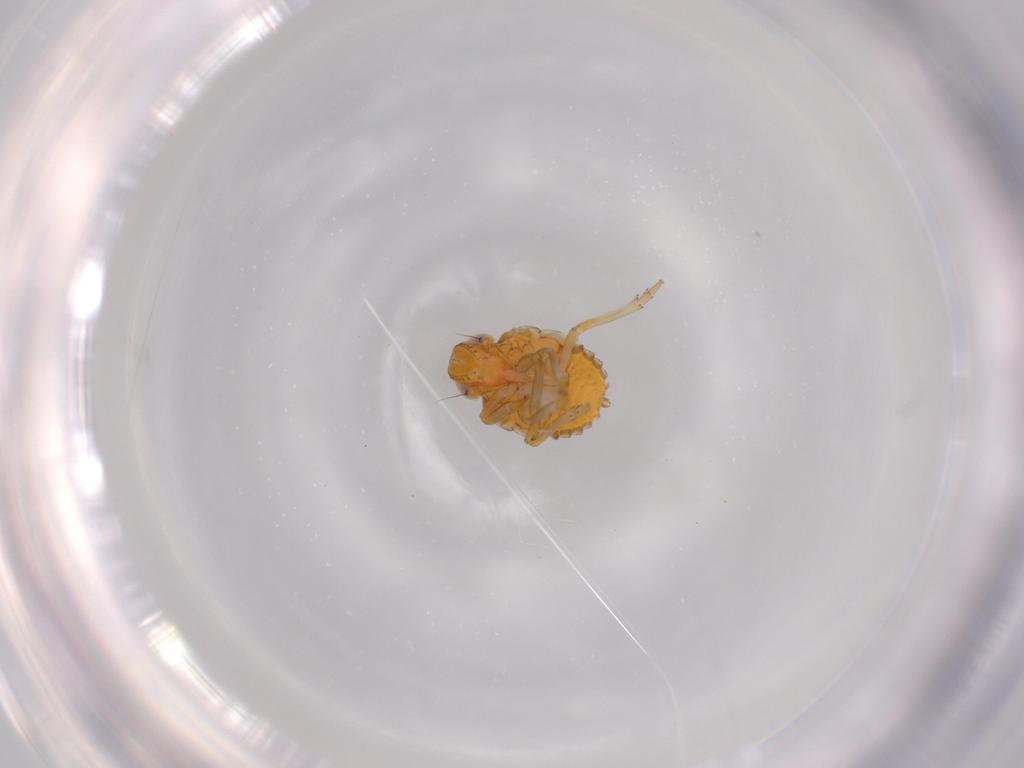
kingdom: Animalia
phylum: Arthropoda
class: Insecta
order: Hemiptera
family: Issidae
